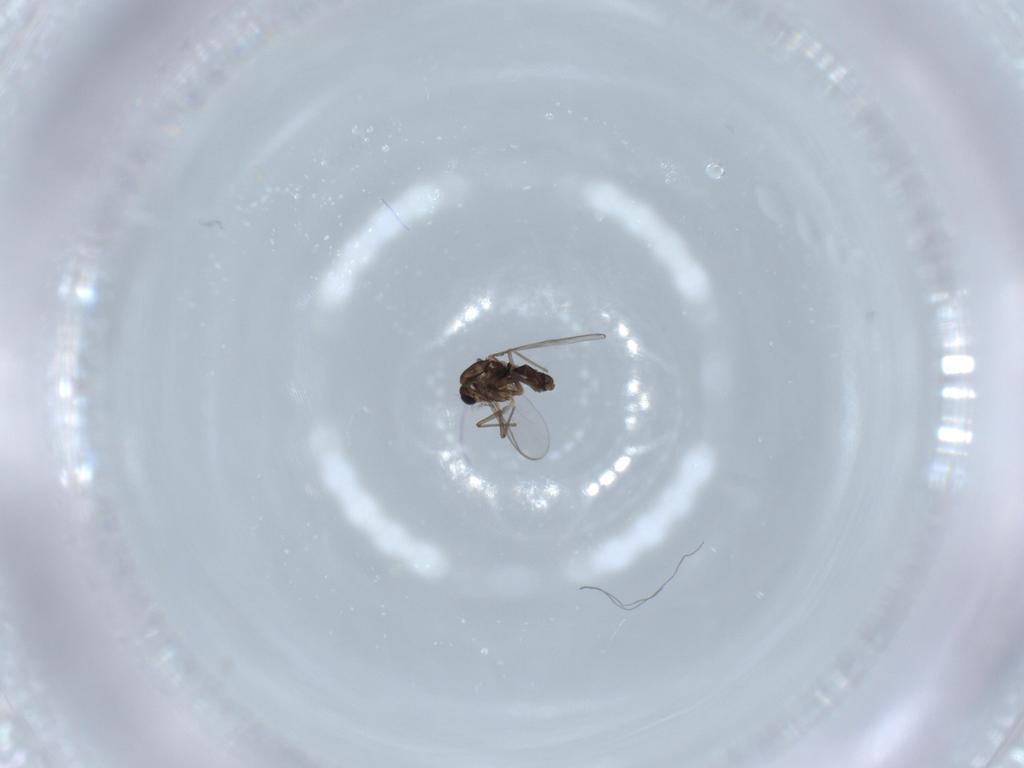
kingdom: Animalia
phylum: Arthropoda
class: Insecta
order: Diptera
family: Chironomidae
